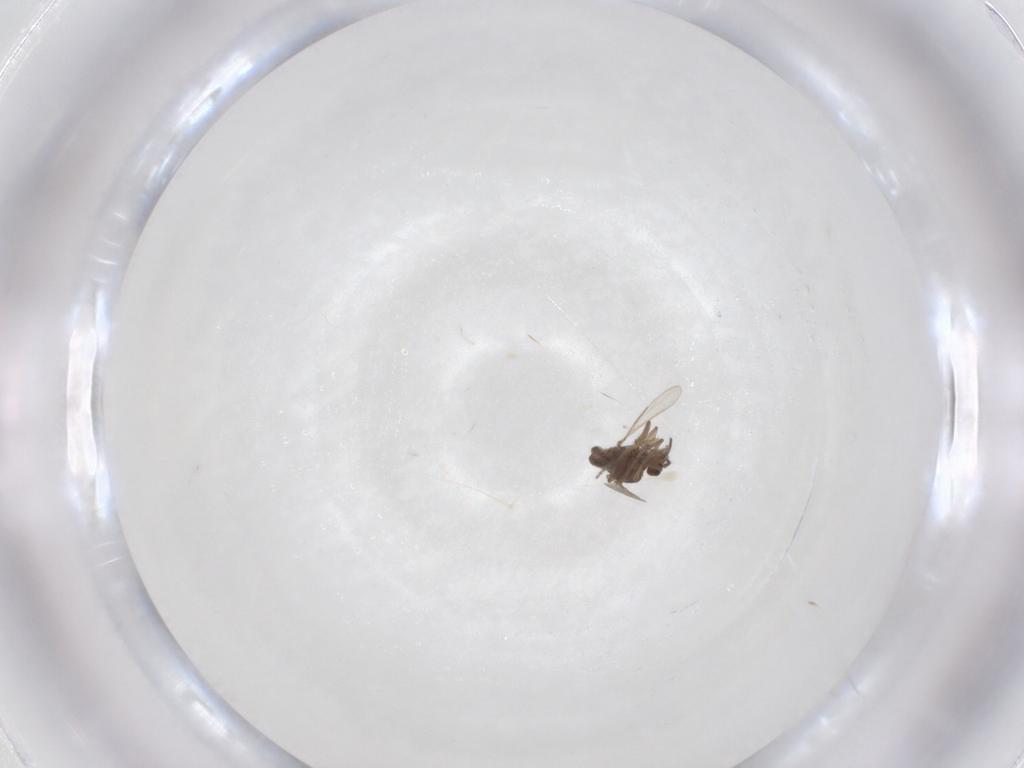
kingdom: Animalia
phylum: Arthropoda
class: Insecta
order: Diptera
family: Ceratopogonidae
